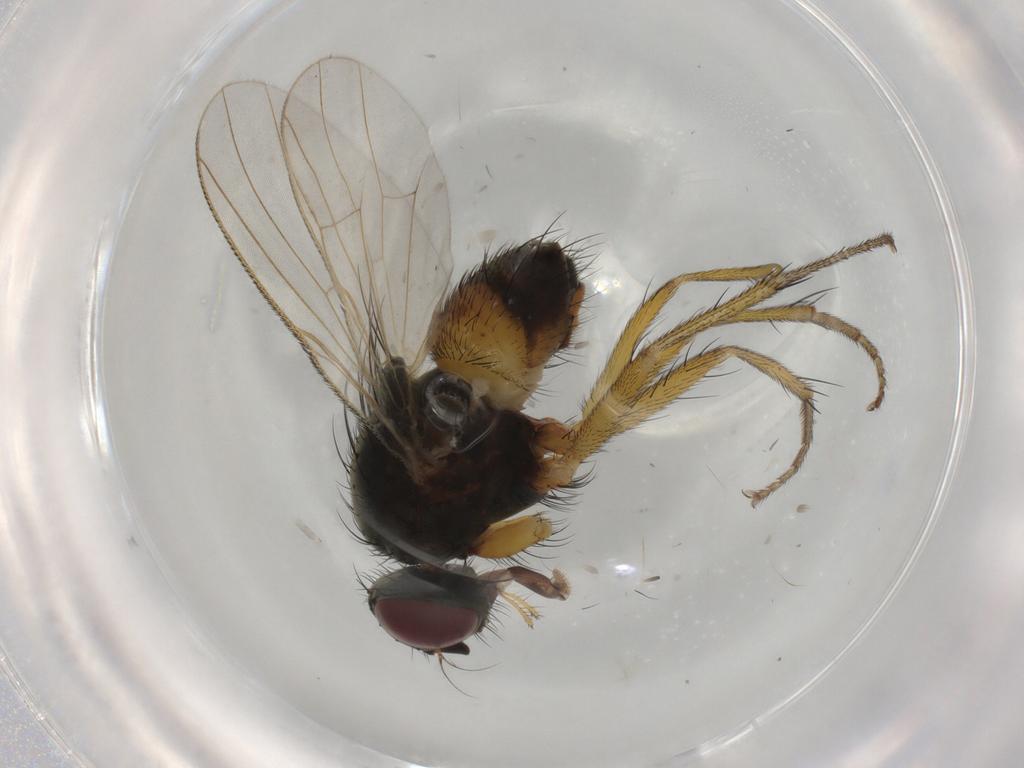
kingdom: Animalia
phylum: Arthropoda
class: Insecta
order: Diptera
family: Muscidae
